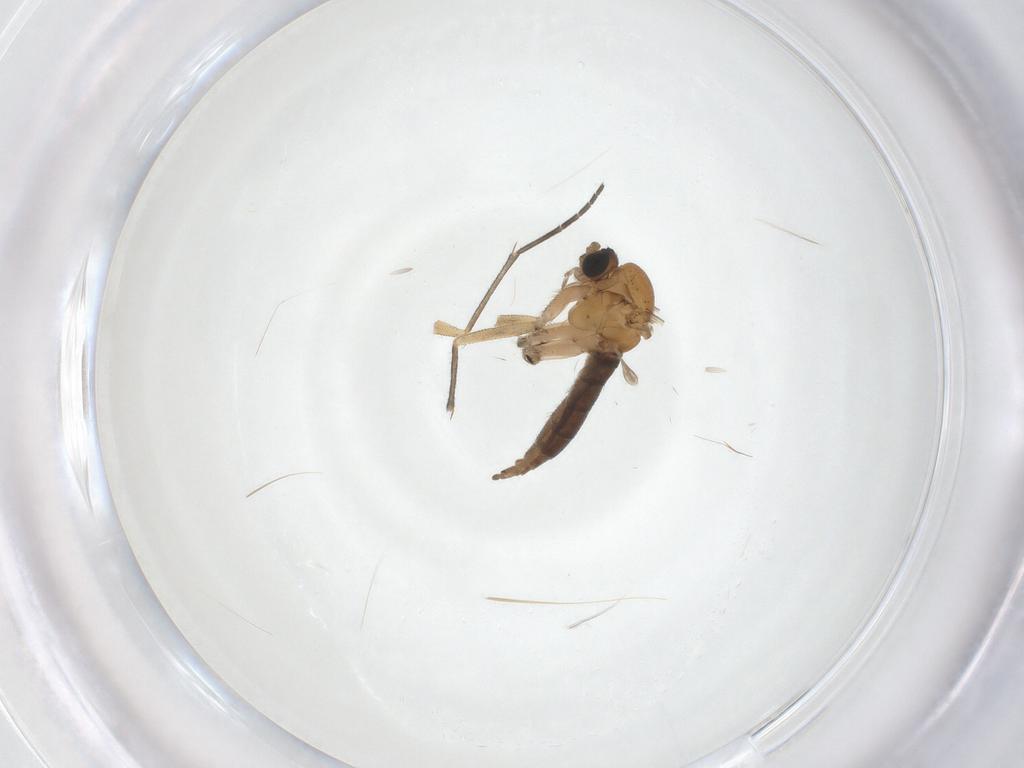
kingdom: Animalia
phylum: Arthropoda
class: Insecta
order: Diptera
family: Sciaridae
